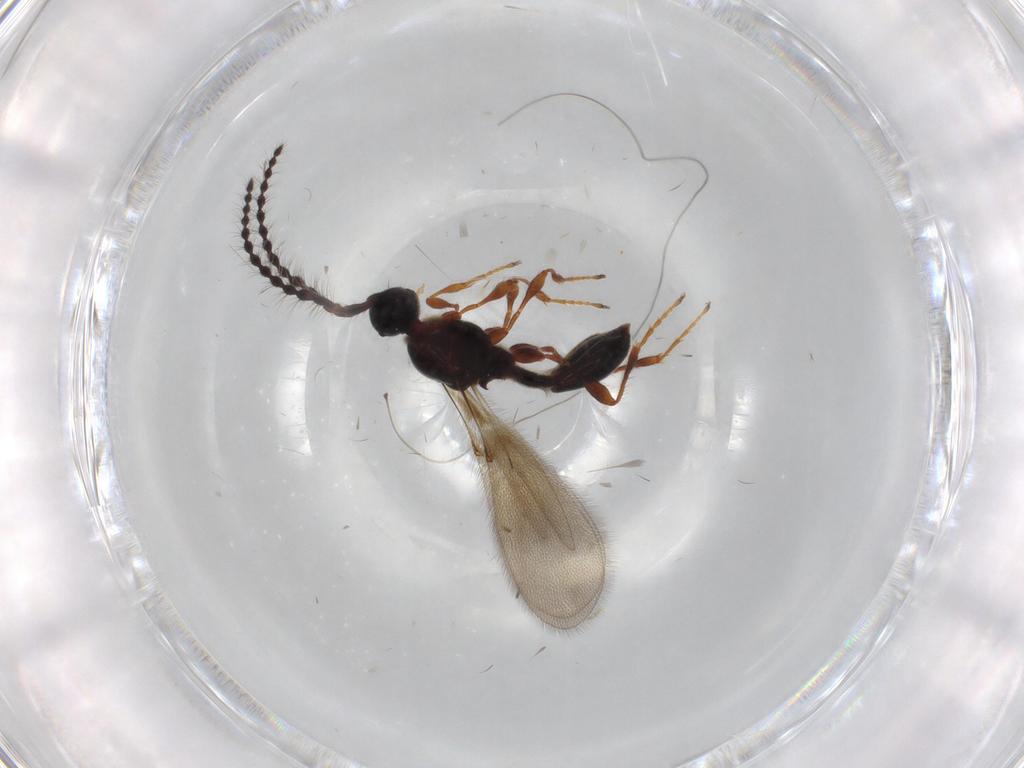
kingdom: Animalia
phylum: Arthropoda
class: Insecta
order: Hymenoptera
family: Diapriidae
